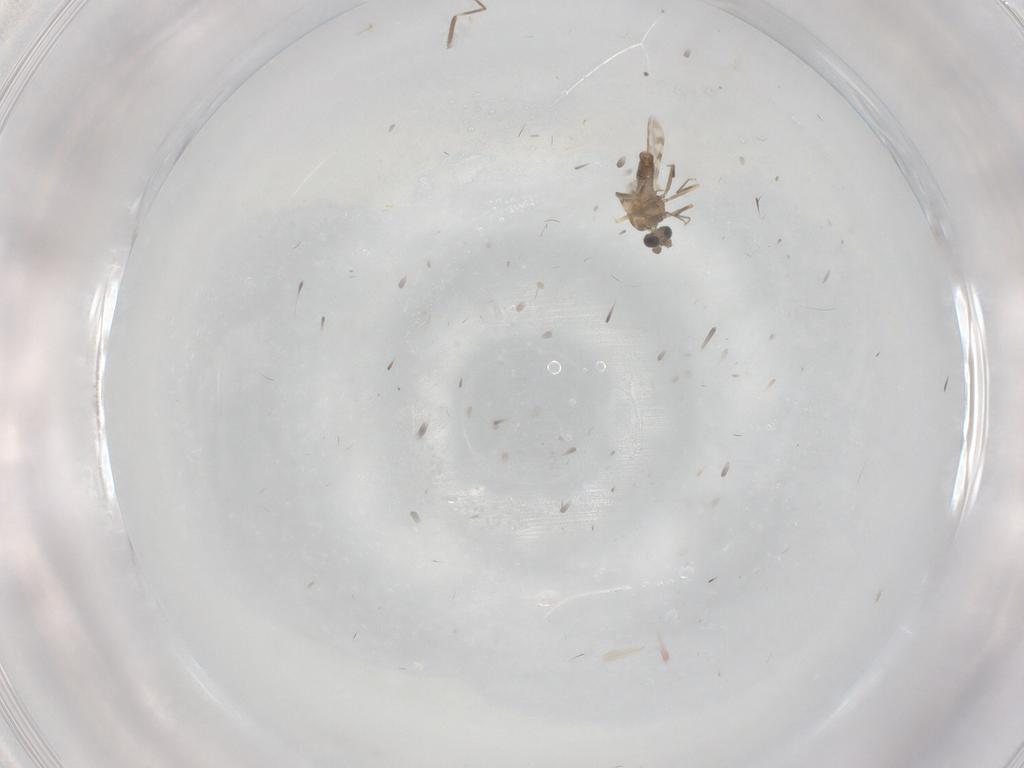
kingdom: Animalia
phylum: Arthropoda
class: Insecta
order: Diptera
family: Ceratopogonidae
